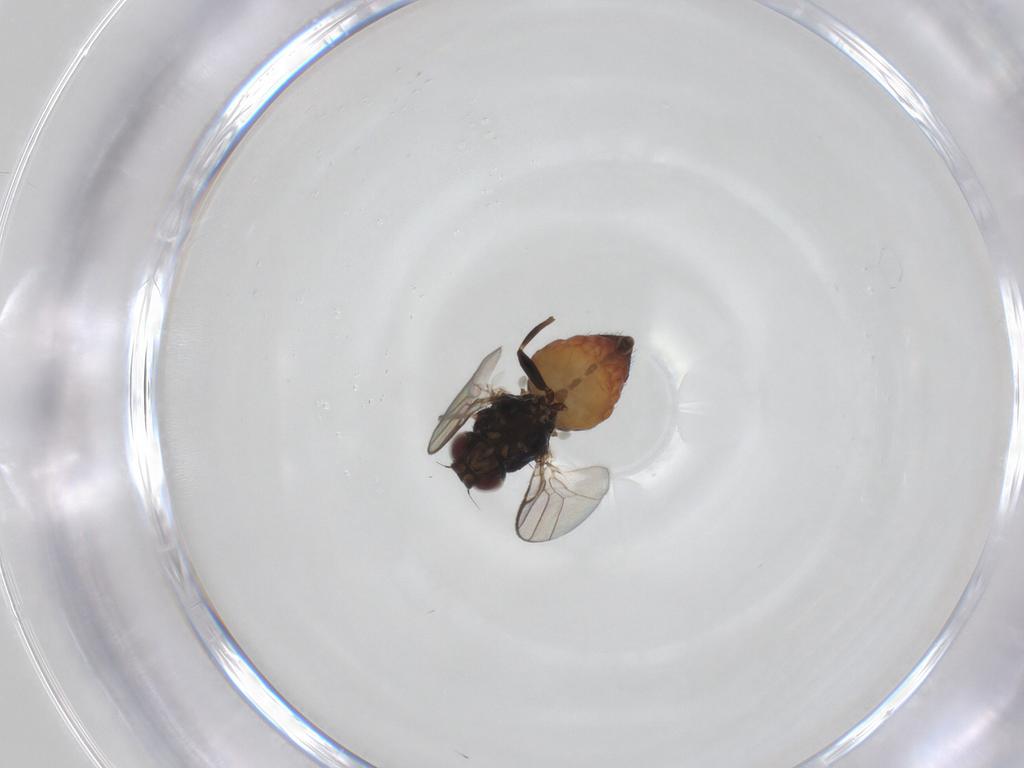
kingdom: Animalia
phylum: Arthropoda
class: Insecta
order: Diptera
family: Chloropidae
